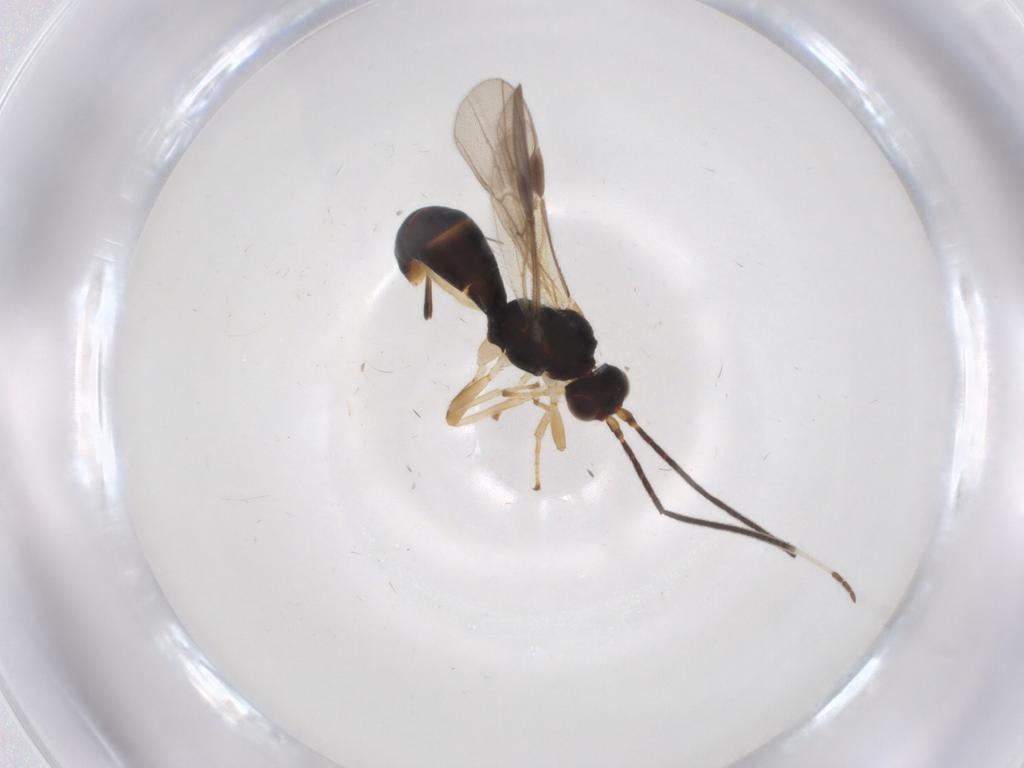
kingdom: Animalia
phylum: Arthropoda
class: Insecta
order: Hymenoptera
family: Braconidae
